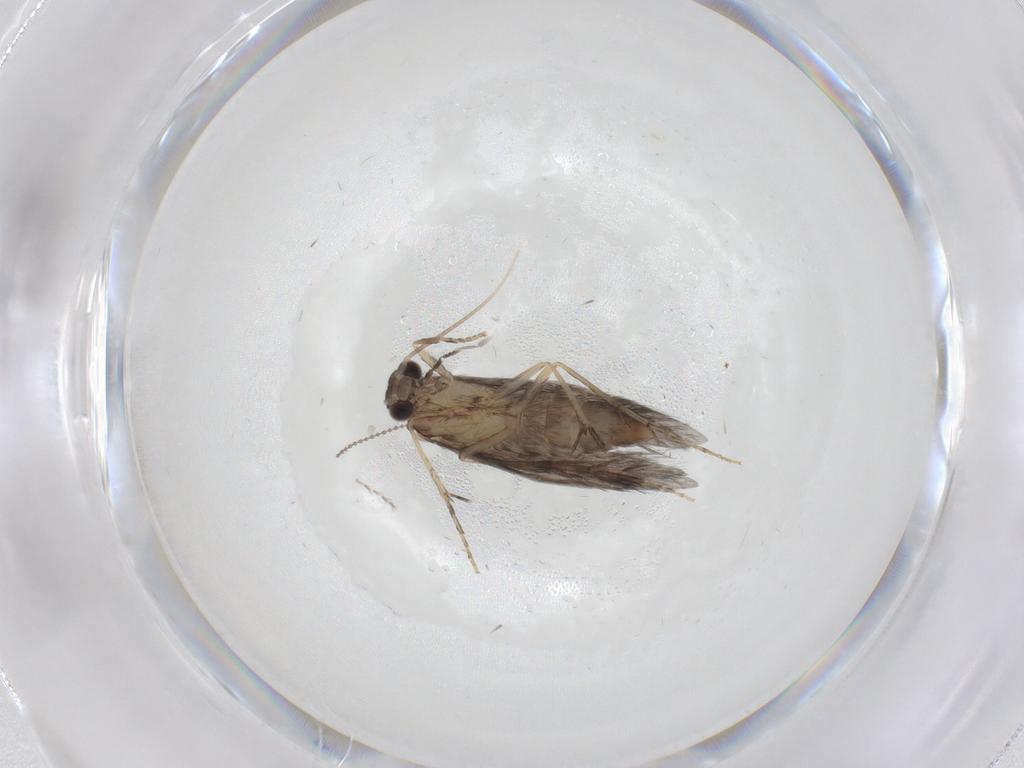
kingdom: Animalia
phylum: Arthropoda
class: Insecta
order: Trichoptera
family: Hydroptilidae
